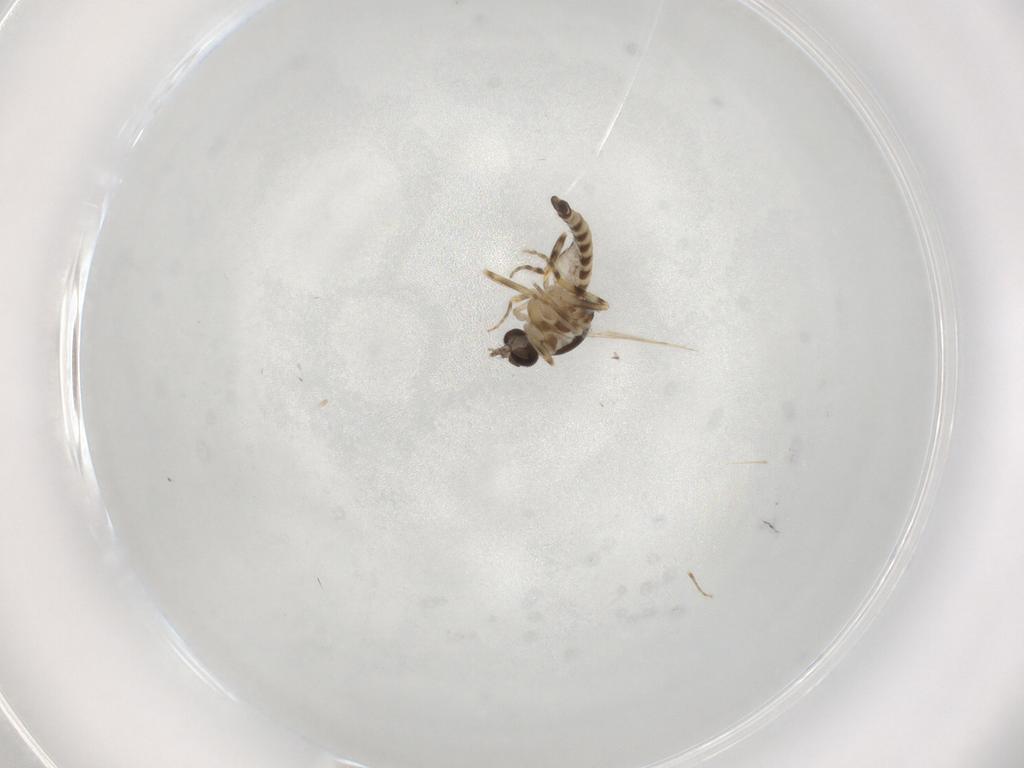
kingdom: Animalia
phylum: Arthropoda
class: Insecta
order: Diptera
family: Ceratopogonidae
